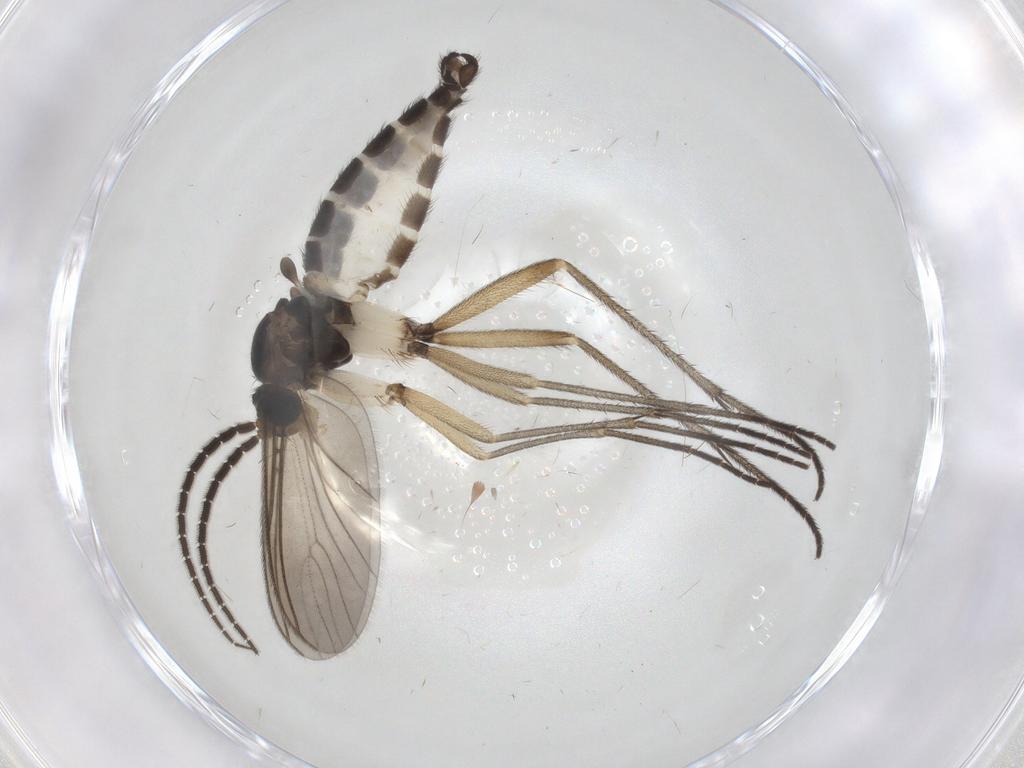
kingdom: Animalia
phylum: Arthropoda
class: Insecta
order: Diptera
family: Sciaridae
